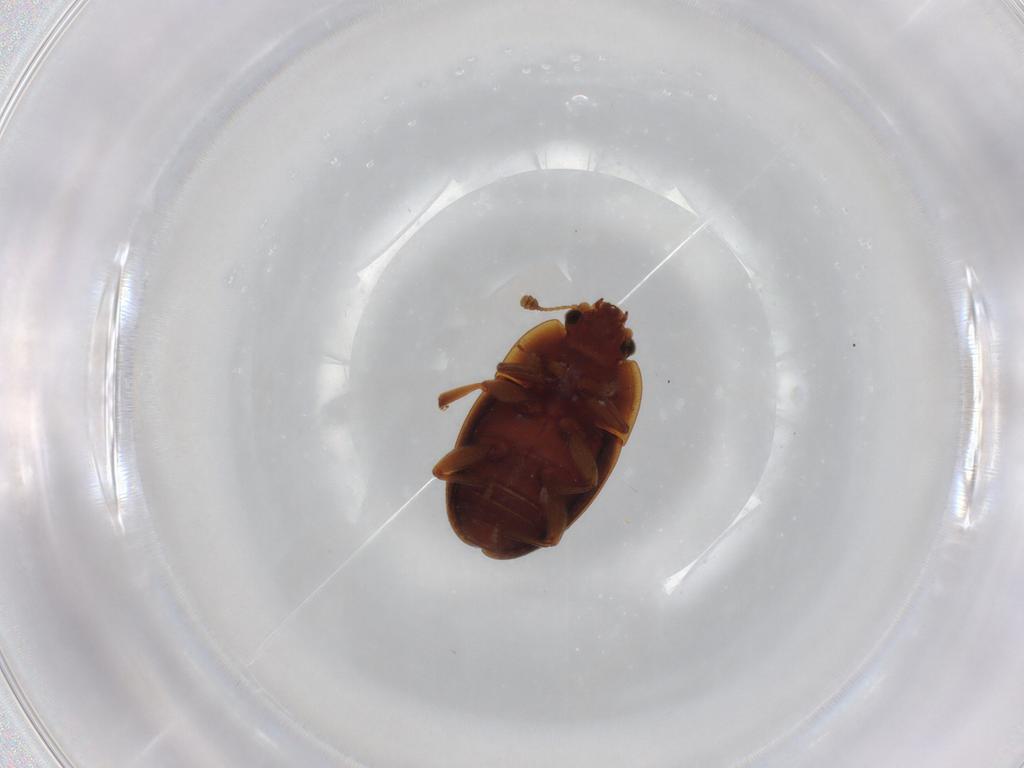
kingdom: Animalia
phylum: Arthropoda
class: Insecta
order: Coleoptera
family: Nitidulidae
